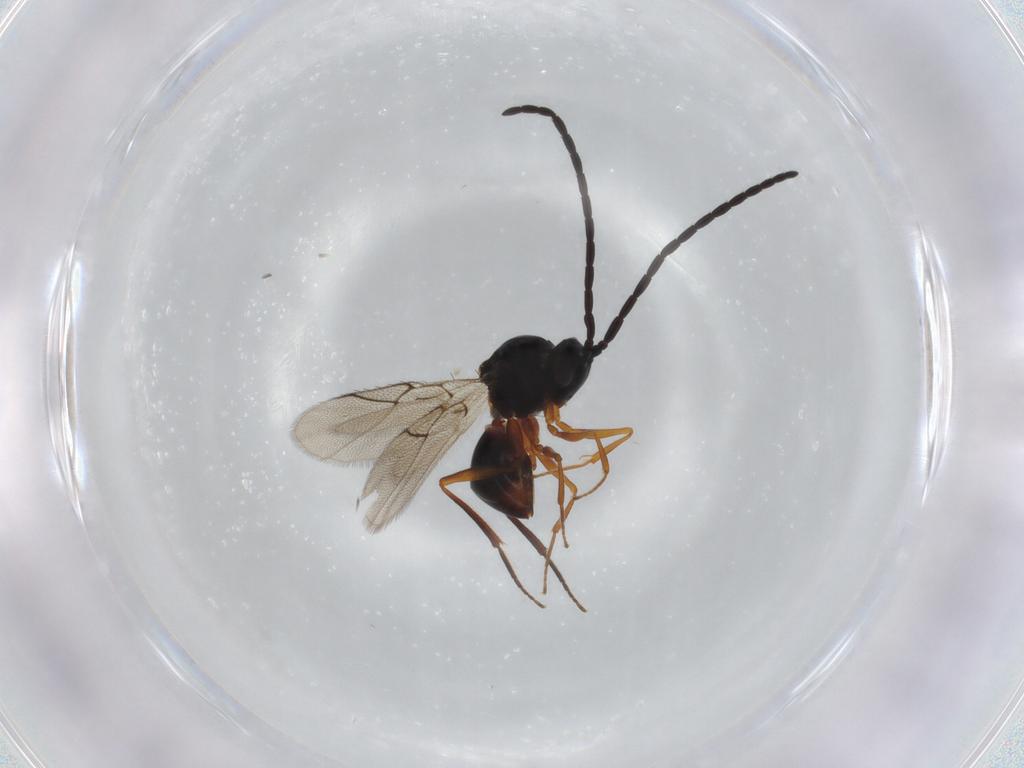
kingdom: Animalia
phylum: Arthropoda
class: Insecta
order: Hymenoptera
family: Figitidae
